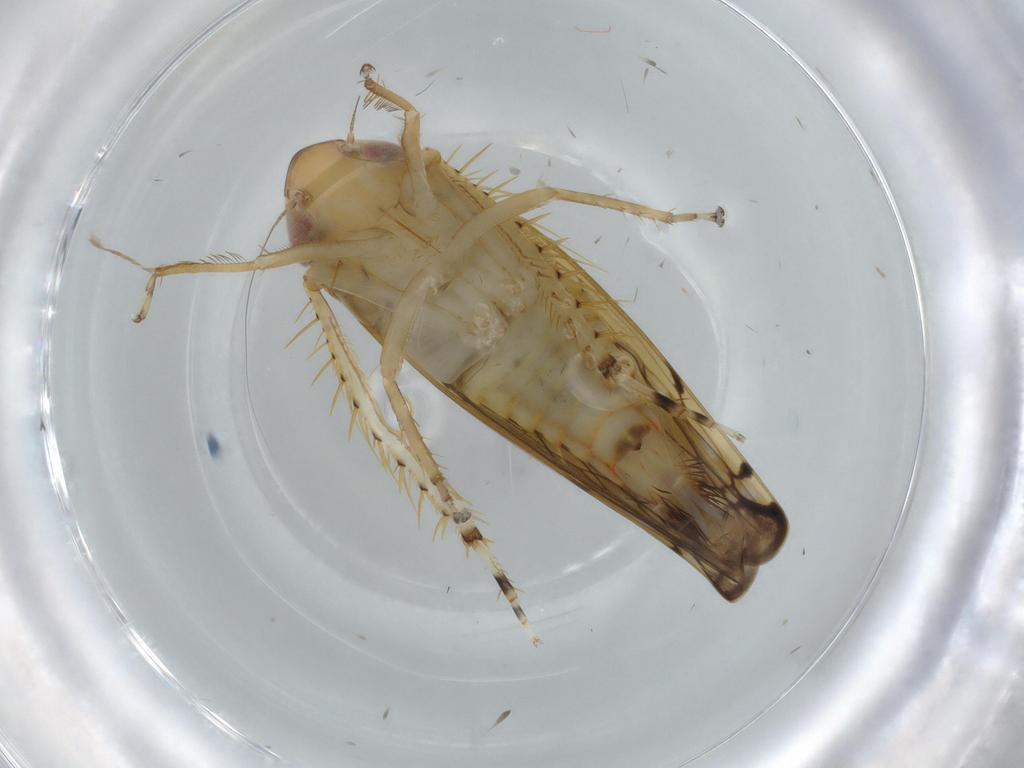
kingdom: Animalia
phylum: Arthropoda
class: Insecta
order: Hemiptera
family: Cicadellidae
